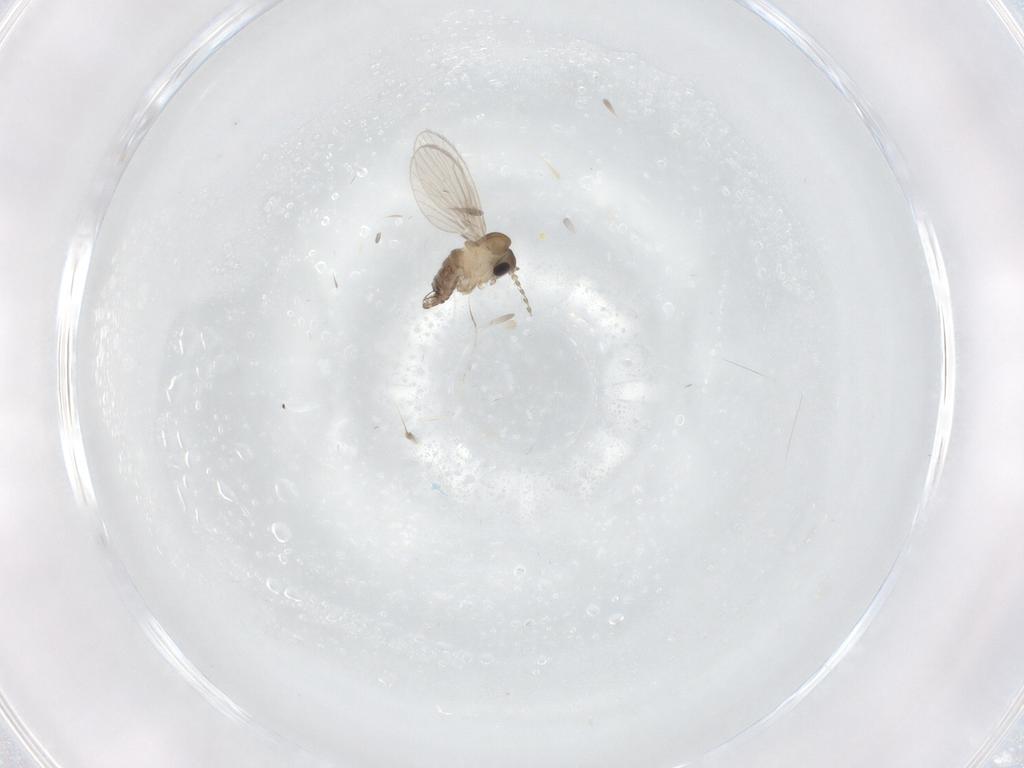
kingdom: Animalia
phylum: Arthropoda
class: Insecta
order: Diptera
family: Cecidomyiidae
